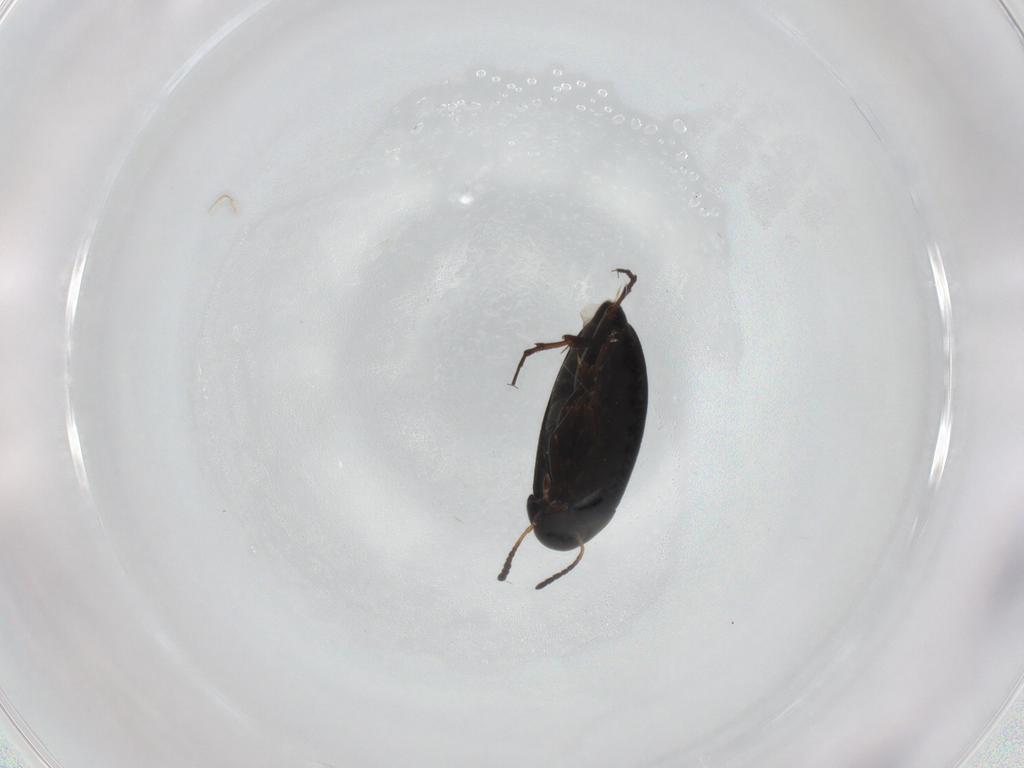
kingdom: Animalia
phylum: Arthropoda
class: Insecta
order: Coleoptera
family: Scraptiidae
